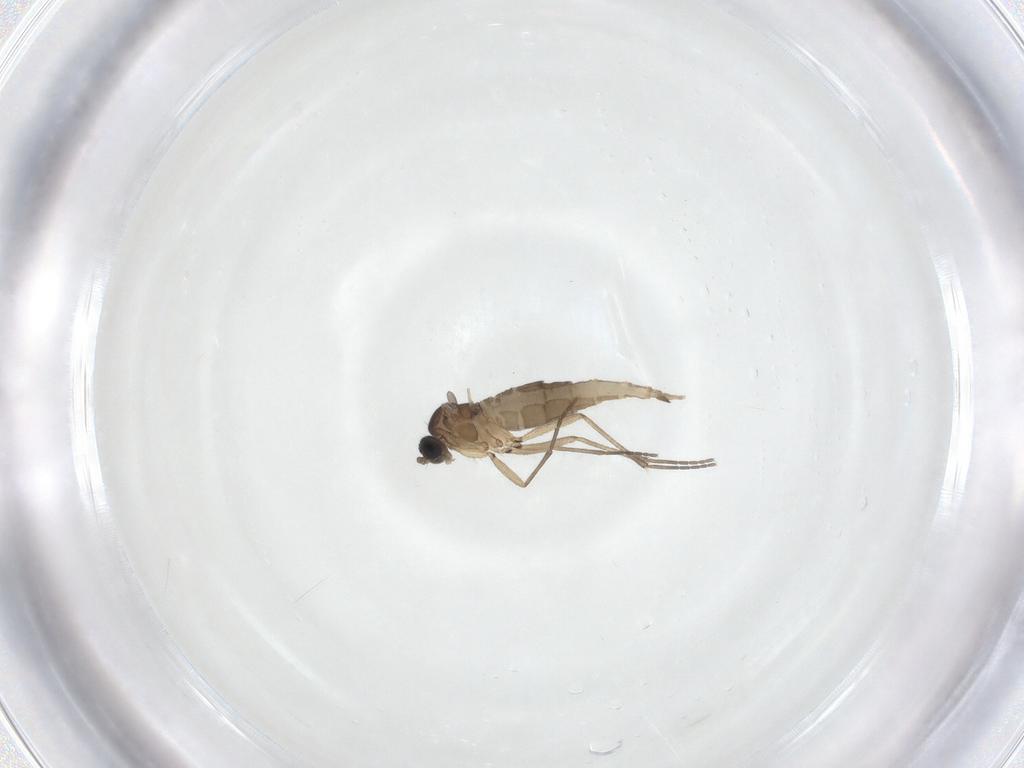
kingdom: Animalia
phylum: Arthropoda
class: Insecta
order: Diptera
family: Sciaridae
